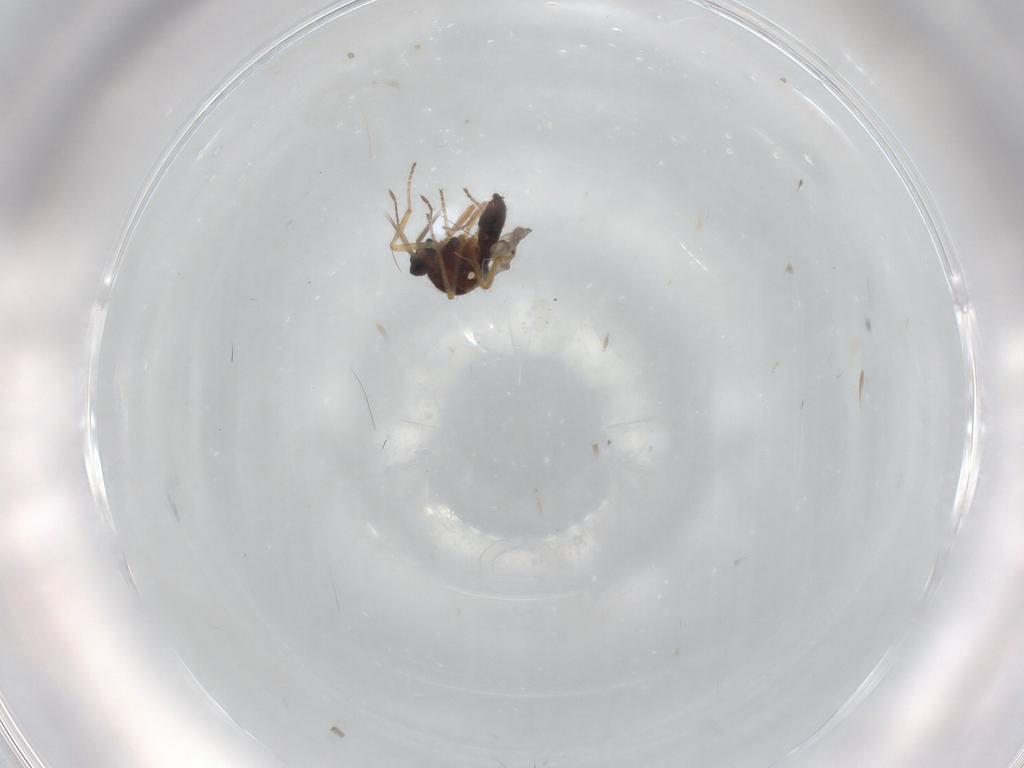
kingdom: Animalia
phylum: Arthropoda
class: Insecta
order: Diptera
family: Ceratopogonidae
